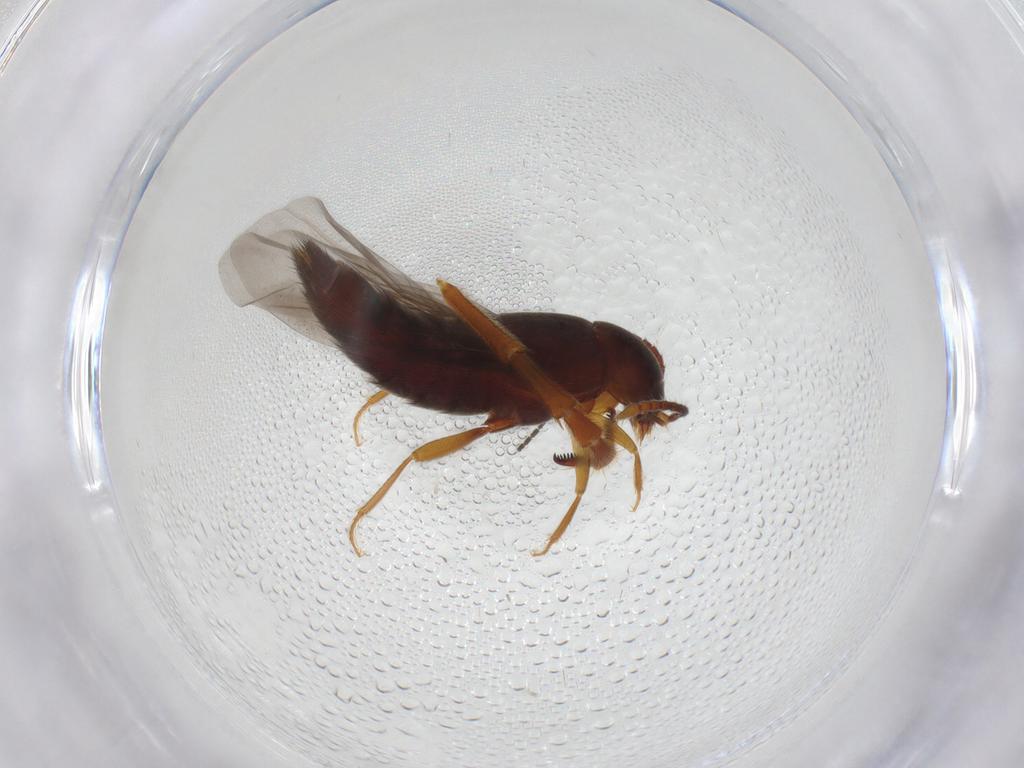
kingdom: Animalia
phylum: Arthropoda
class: Insecta
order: Coleoptera
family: Staphylinidae
